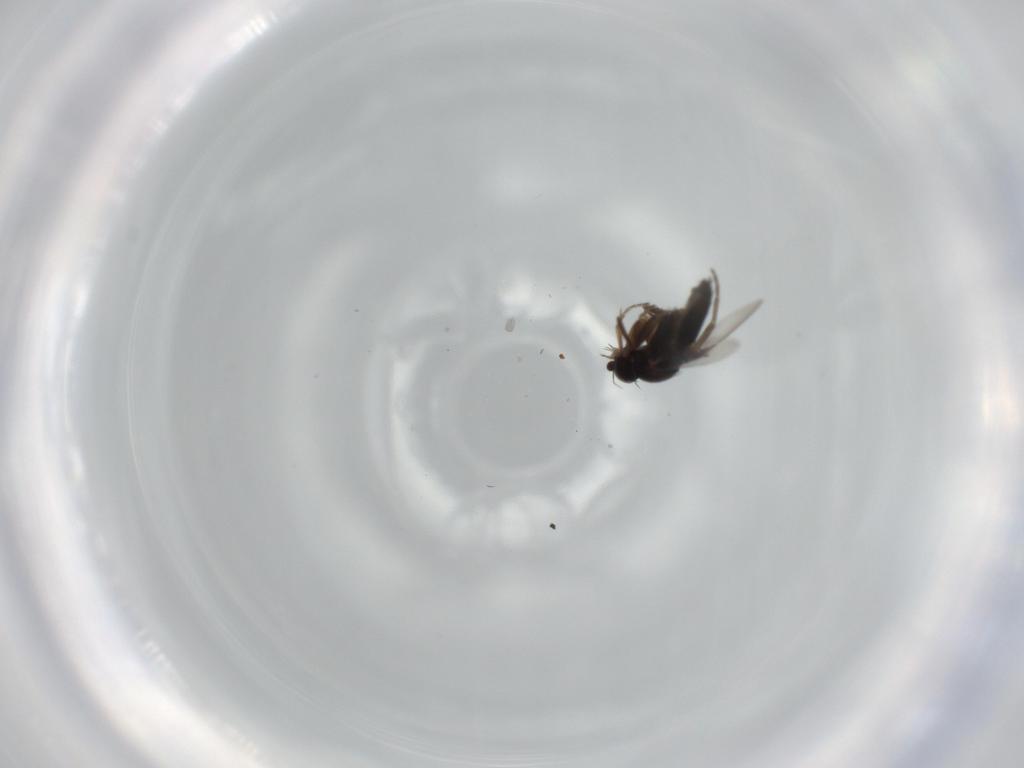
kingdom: Animalia
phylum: Arthropoda
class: Insecta
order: Diptera
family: Phoridae
